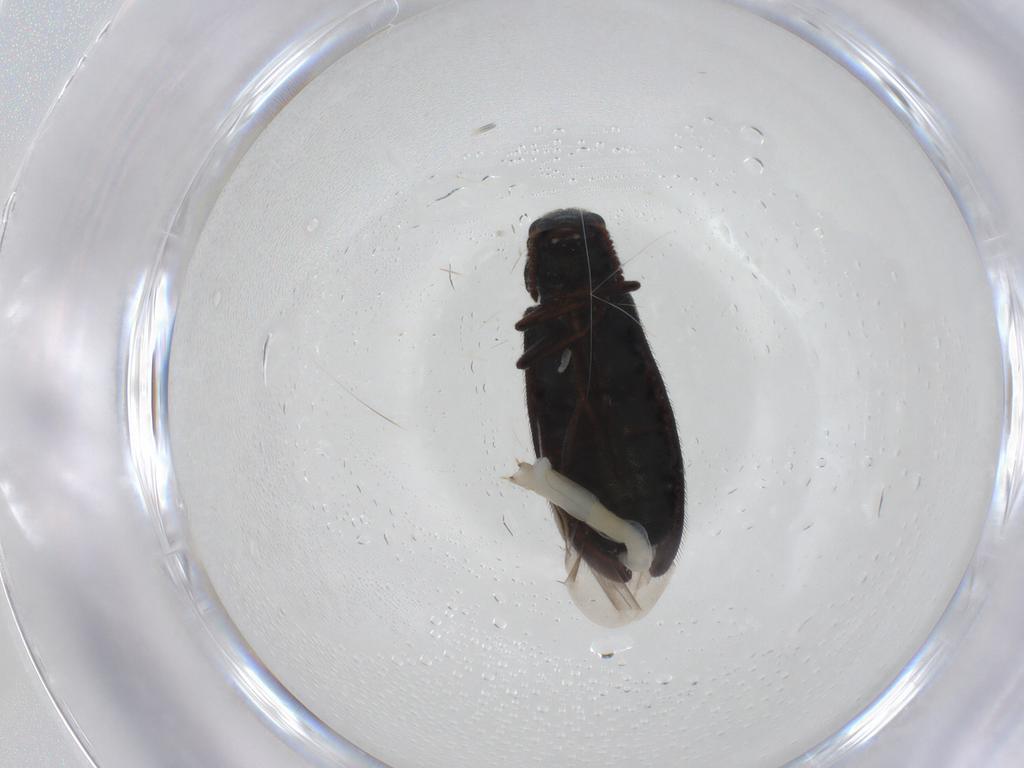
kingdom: Animalia
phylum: Arthropoda
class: Insecta
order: Coleoptera
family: Melyridae
